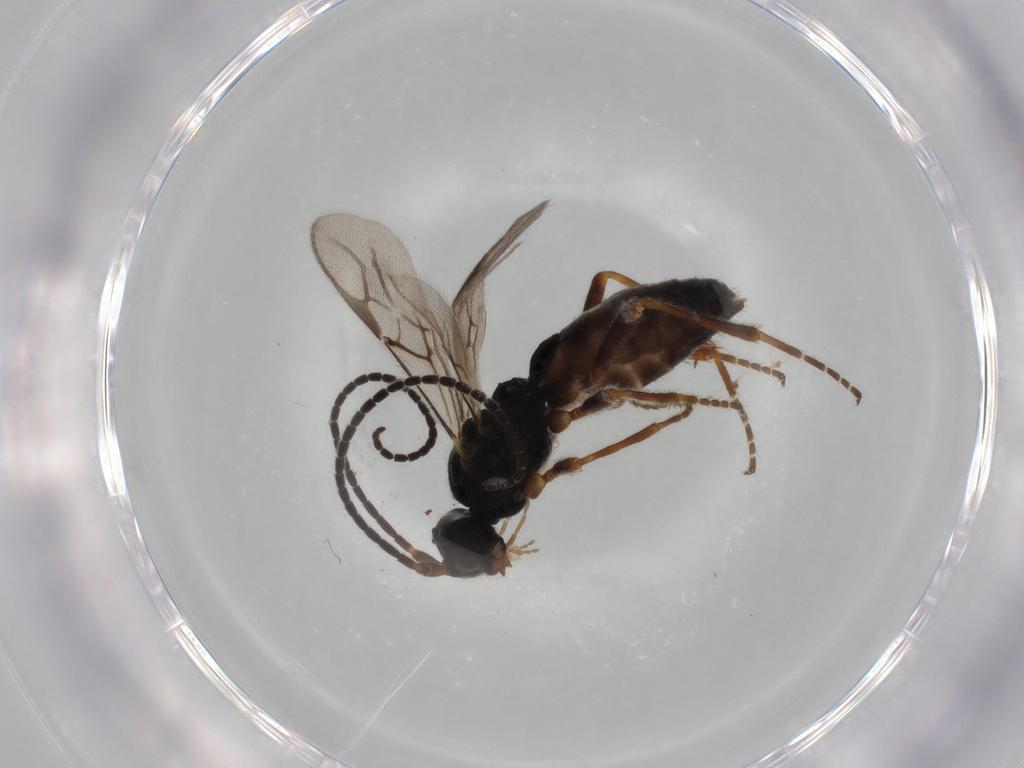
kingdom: Animalia
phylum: Arthropoda
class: Insecta
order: Hymenoptera
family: Braconidae
